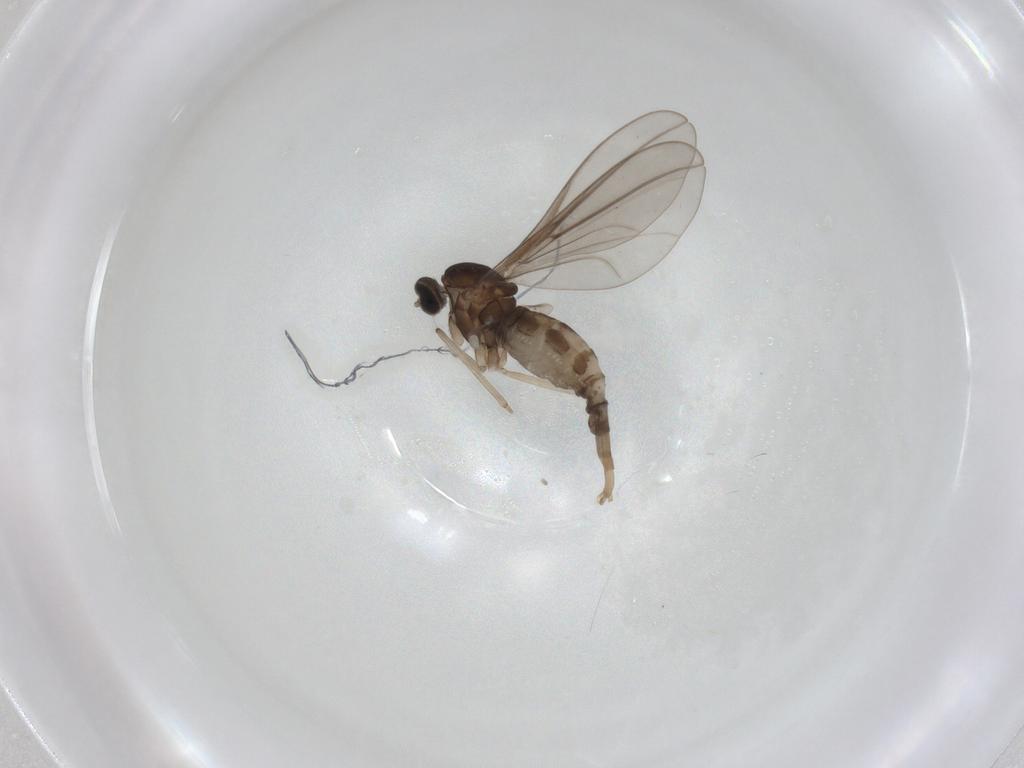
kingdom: Animalia
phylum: Arthropoda
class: Insecta
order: Diptera
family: Cecidomyiidae
